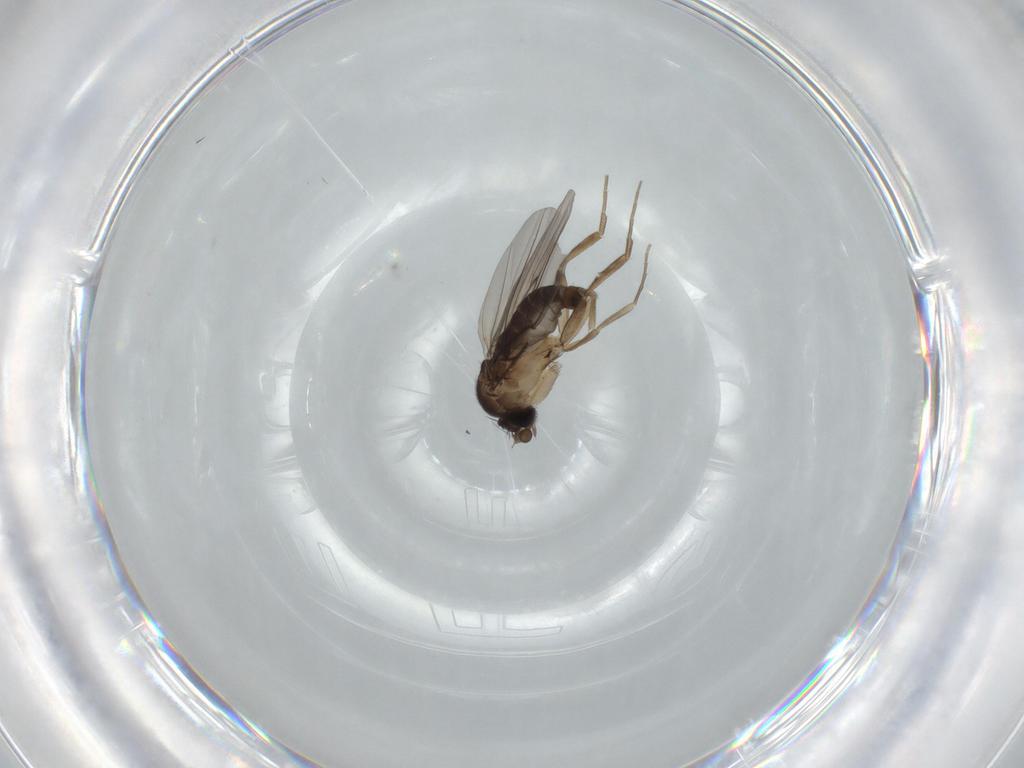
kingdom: Animalia
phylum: Arthropoda
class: Insecta
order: Diptera
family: Phoridae
